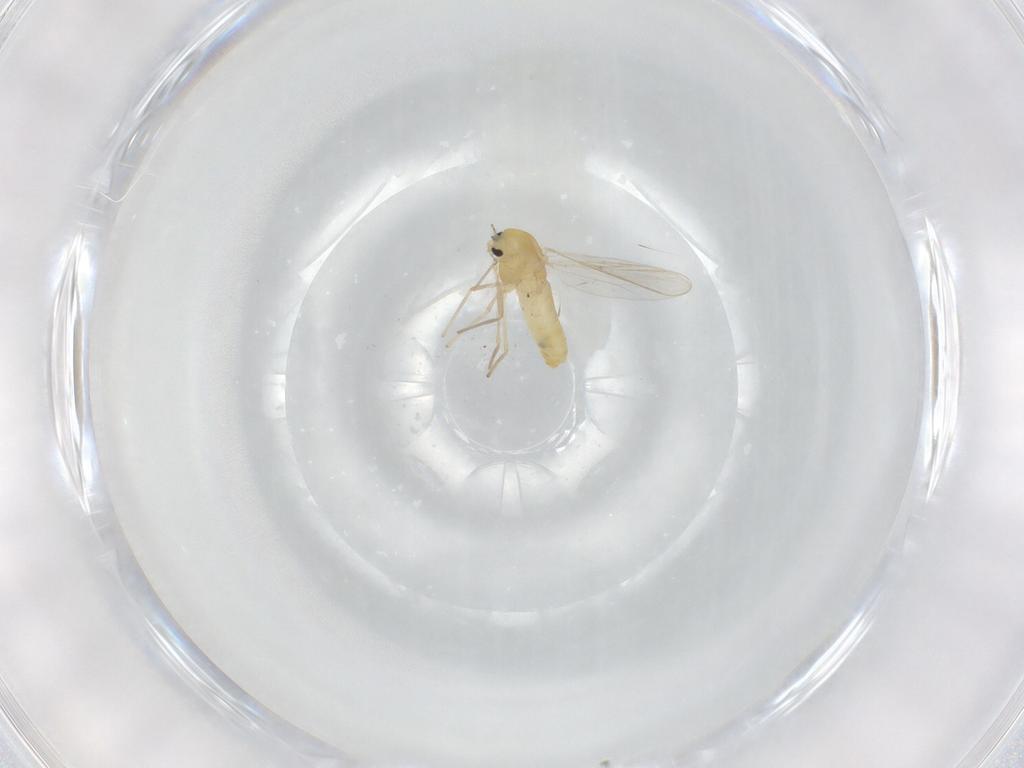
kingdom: Animalia
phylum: Arthropoda
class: Insecta
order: Diptera
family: Chironomidae
